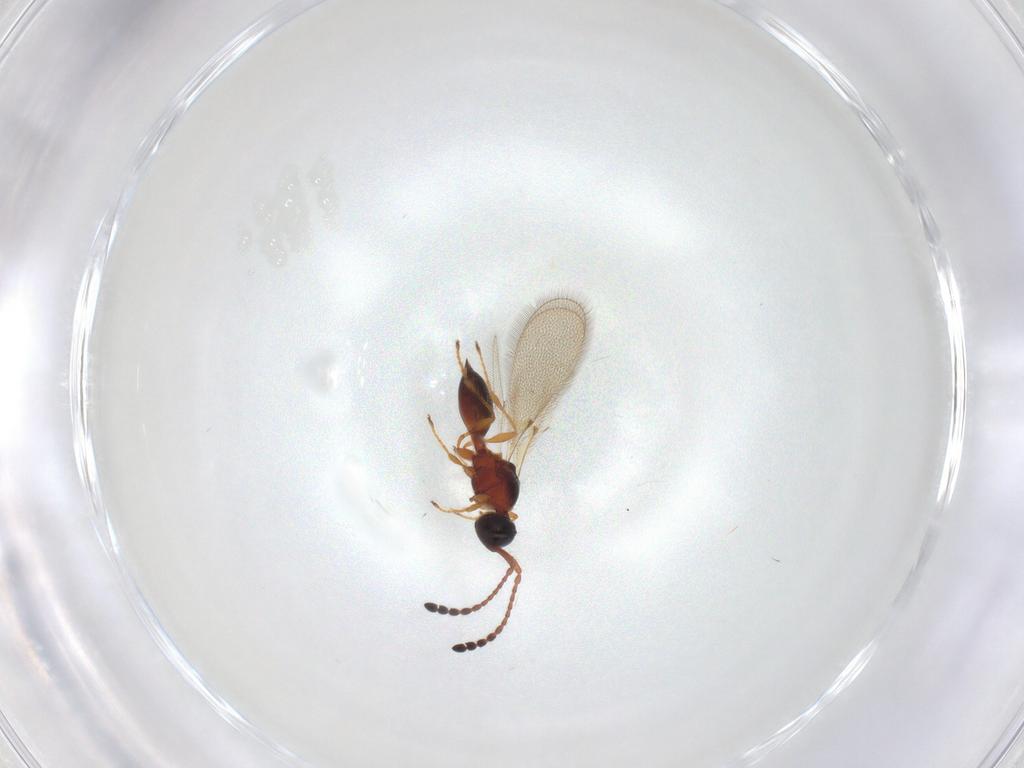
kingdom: Animalia
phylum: Arthropoda
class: Insecta
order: Hymenoptera
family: Diapriidae
